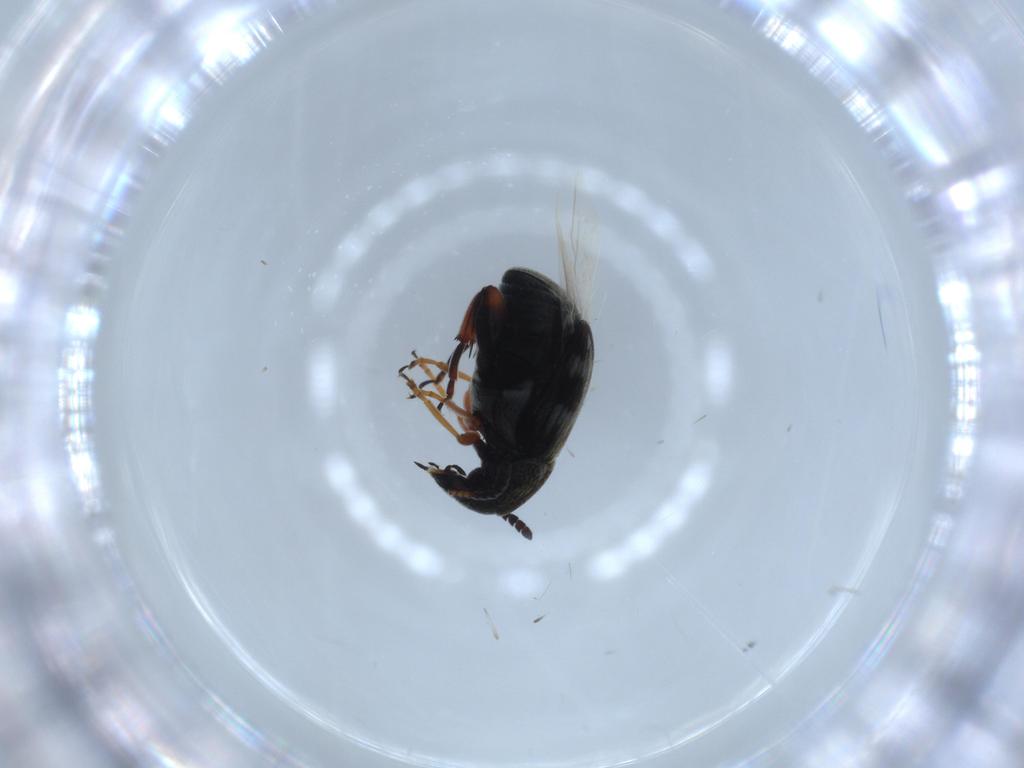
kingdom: Animalia
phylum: Arthropoda
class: Insecta
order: Coleoptera
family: Chrysomelidae
